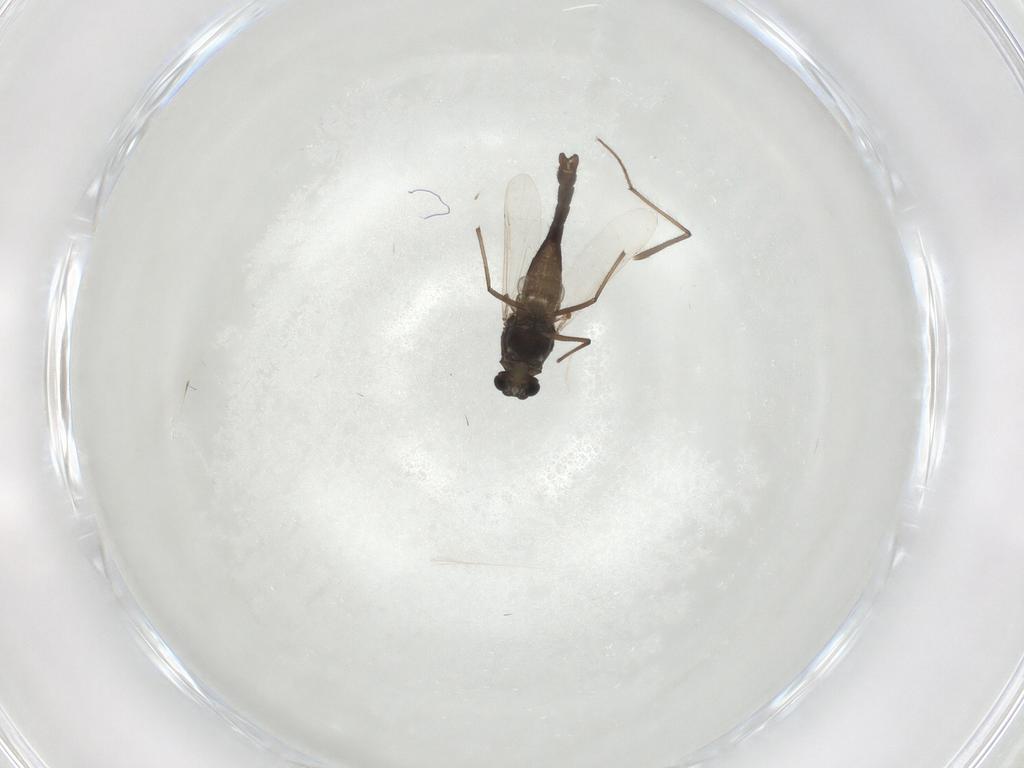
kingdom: Animalia
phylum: Arthropoda
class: Insecta
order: Diptera
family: Chironomidae
